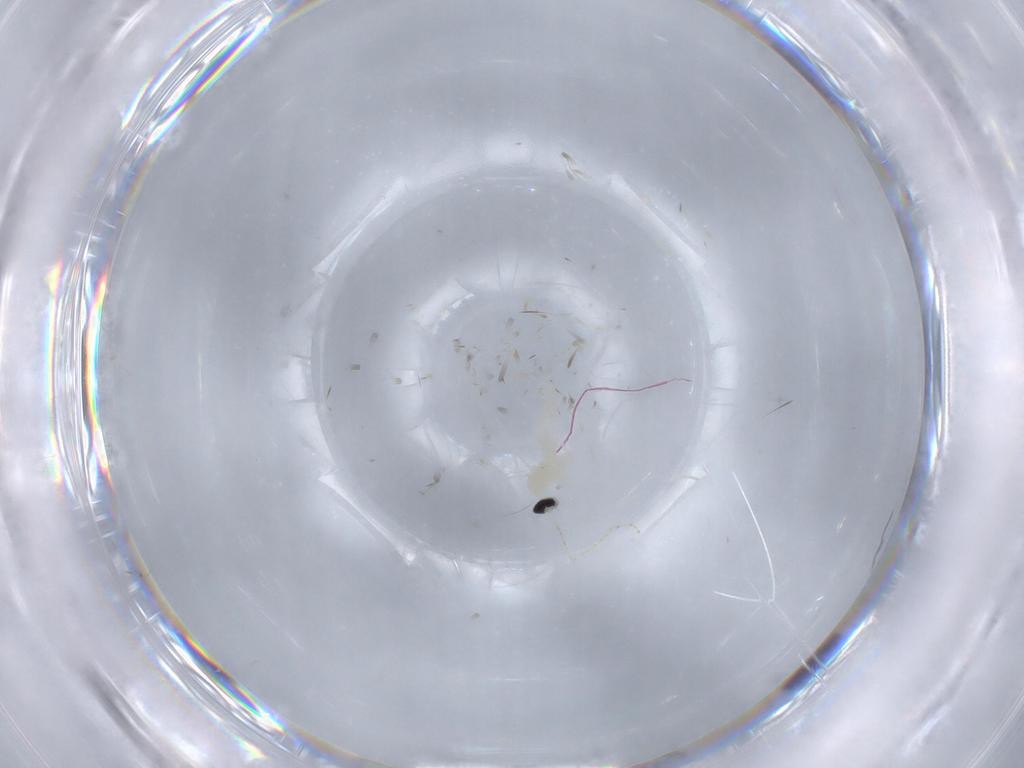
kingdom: Animalia
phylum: Arthropoda
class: Insecta
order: Diptera
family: Cecidomyiidae
